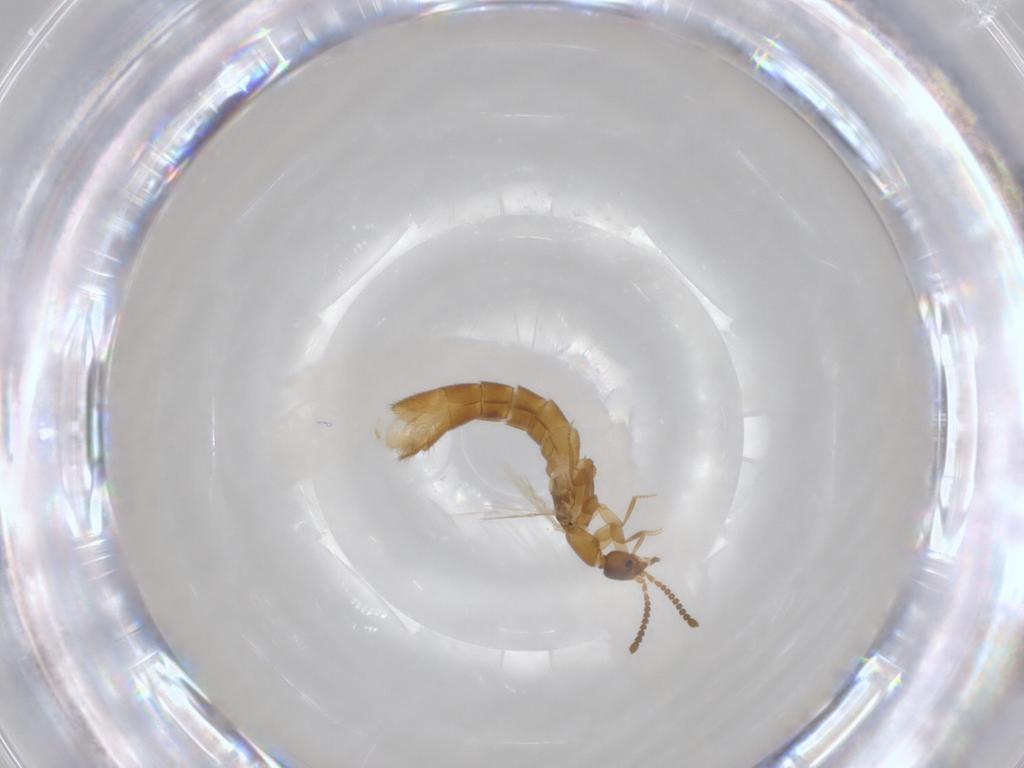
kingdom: Animalia
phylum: Arthropoda
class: Insecta
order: Coleoptera
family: Staphylinidae
